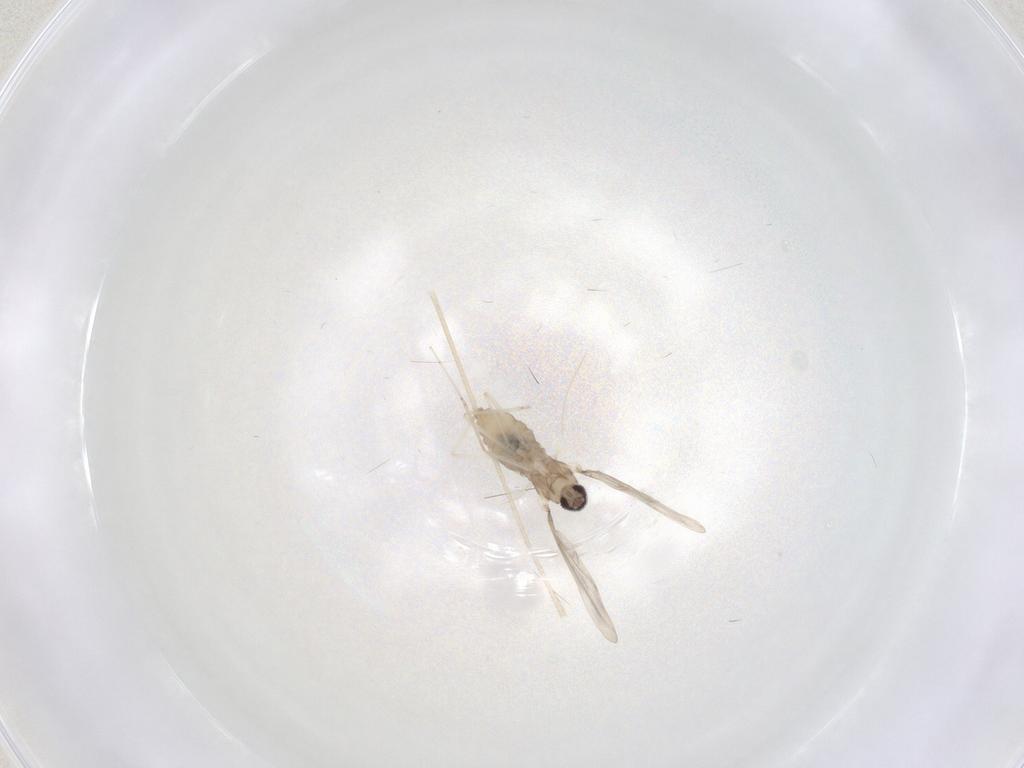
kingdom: Animalia
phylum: Arthropoda
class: Insecta
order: Diptera
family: Cecidomyiidae
